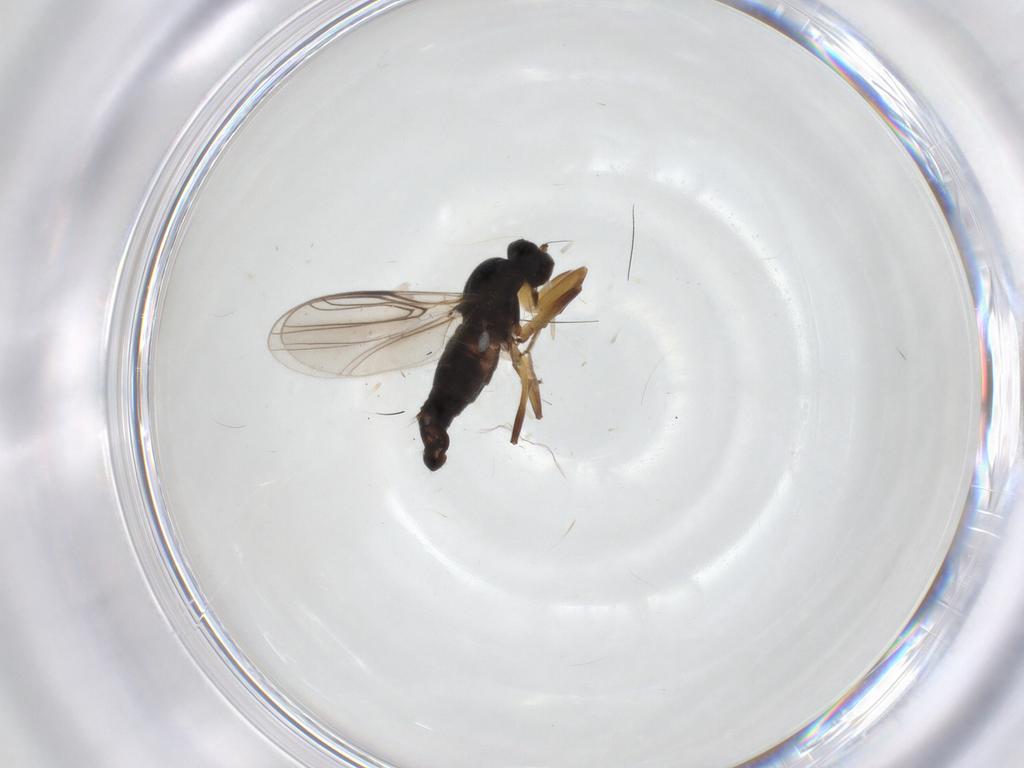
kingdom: Animalia
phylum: Arthropoda
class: Insecta
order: Diptera
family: Hybotidae
